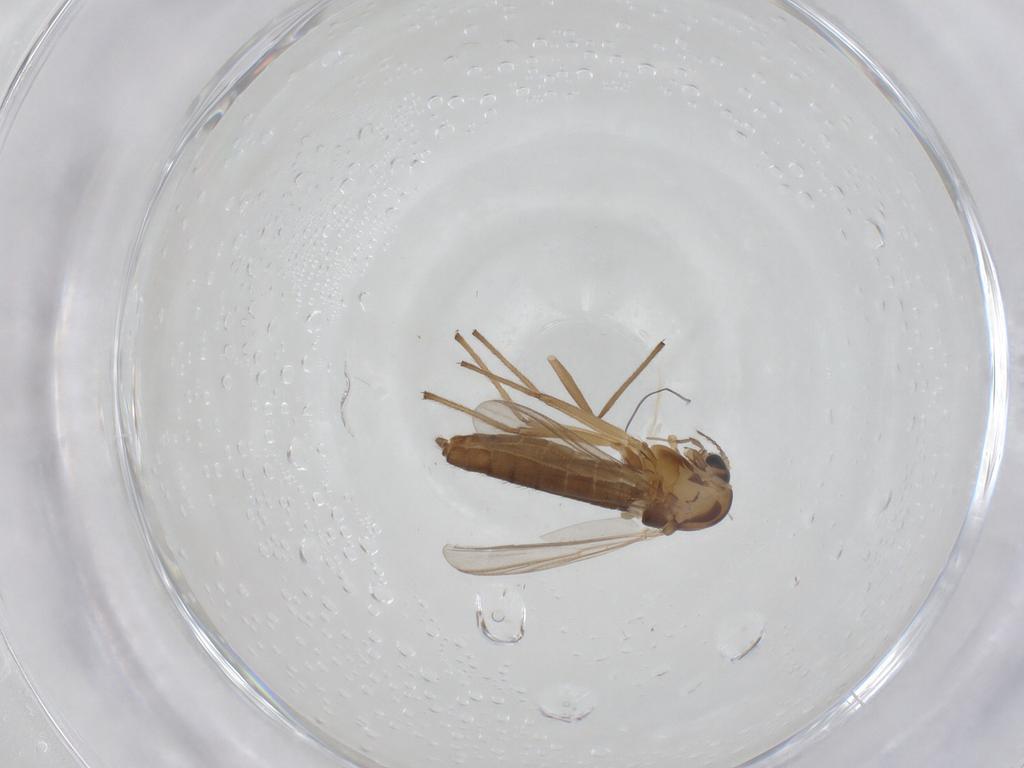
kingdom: Animalia
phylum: Arthropoda
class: Insecta
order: Diptera
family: Chironomidae
